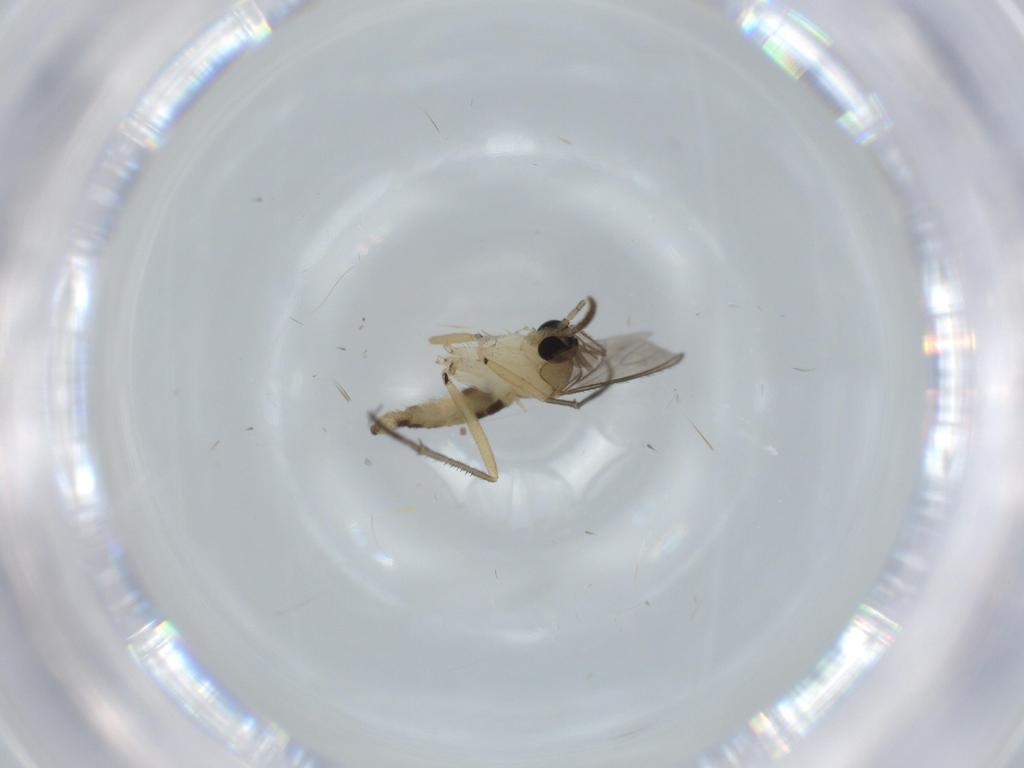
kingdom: Animalia
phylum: Arthropoda
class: Insecta
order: Diptera
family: Sciaridae
